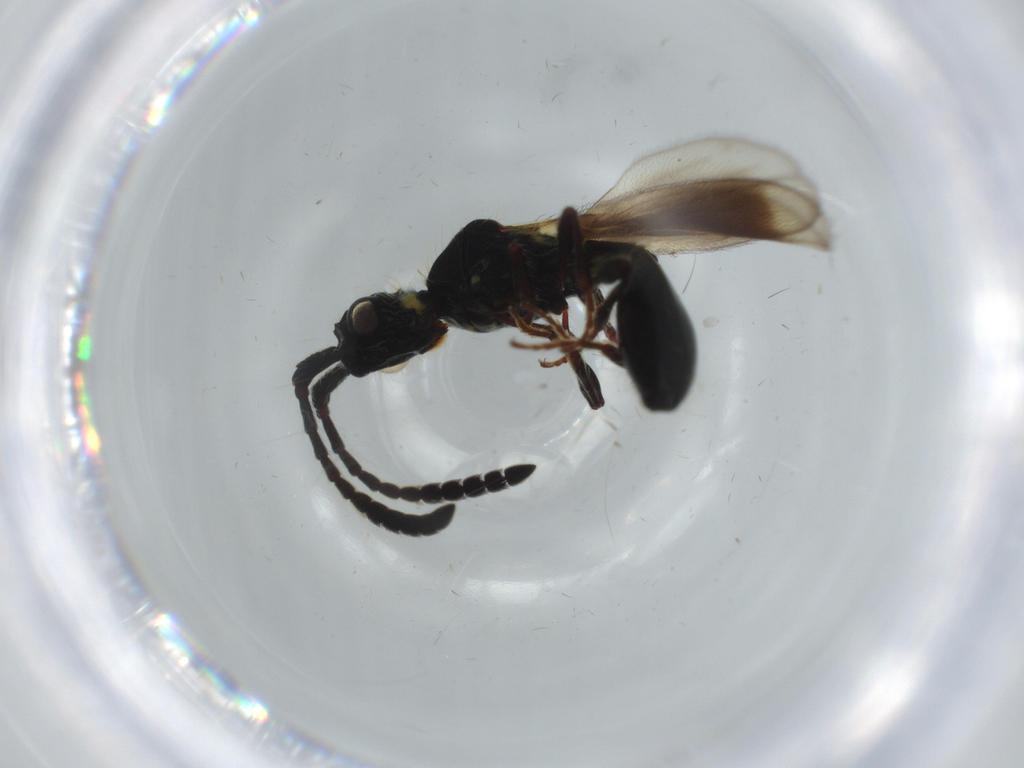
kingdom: Animalia
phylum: Arthropoda
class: Insecta
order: Hymenoptera
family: Diapriidae
